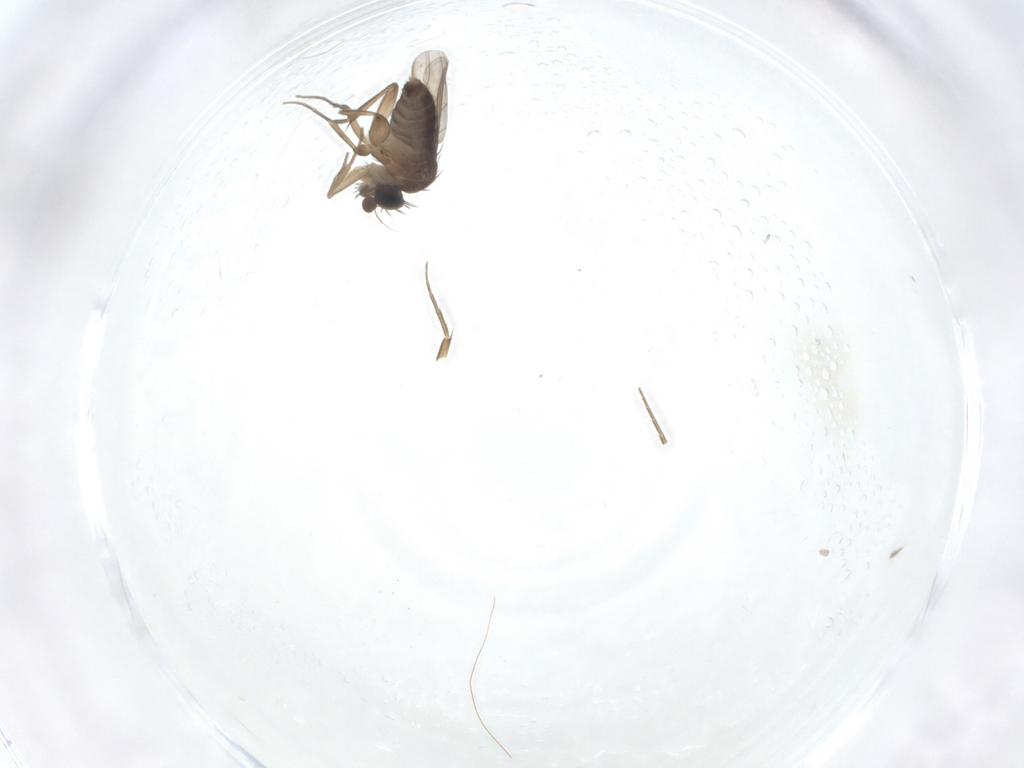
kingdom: Animalia
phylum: Arthropoda
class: Insecta
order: Diptera
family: Phoridae
